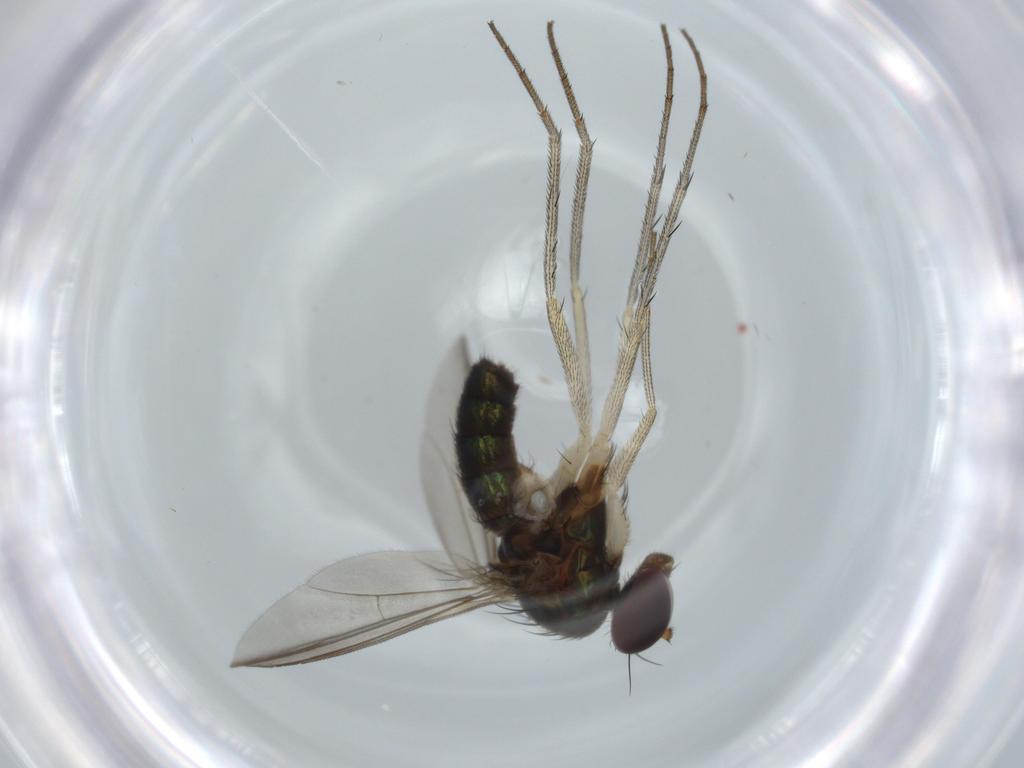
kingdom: Animalia
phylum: Arthropoda
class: Insecta
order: Diptera
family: Dolichopodidae
